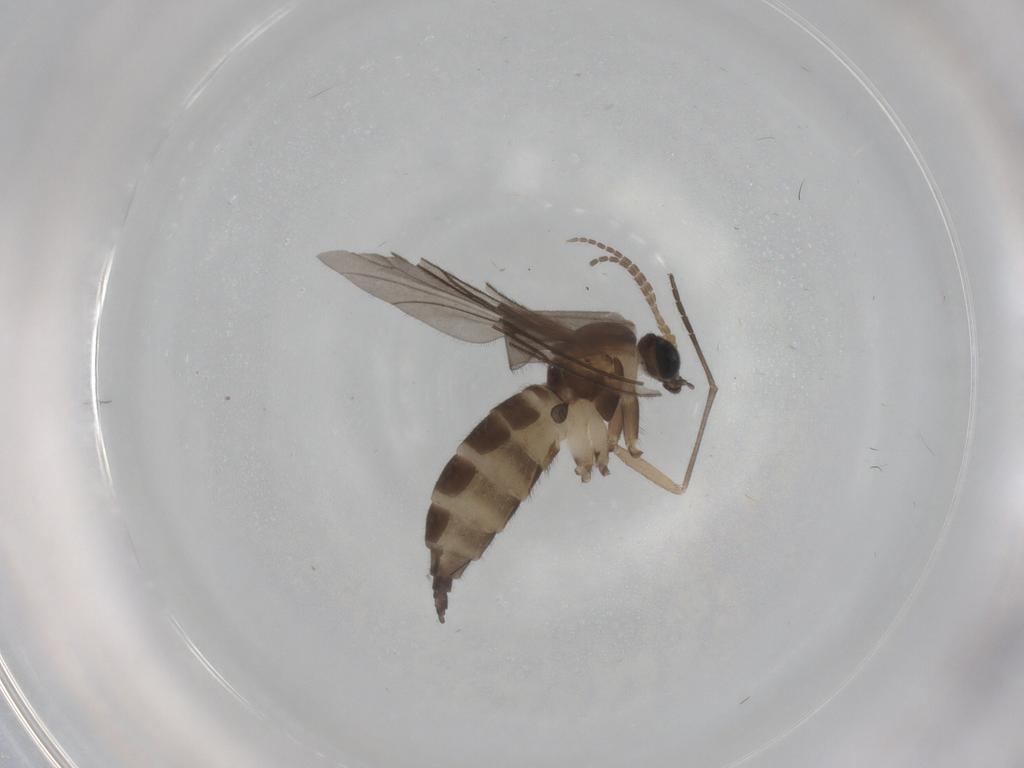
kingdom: Animalia
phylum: Arthropoda
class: Insecta
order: Diptera
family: Sciaridae
